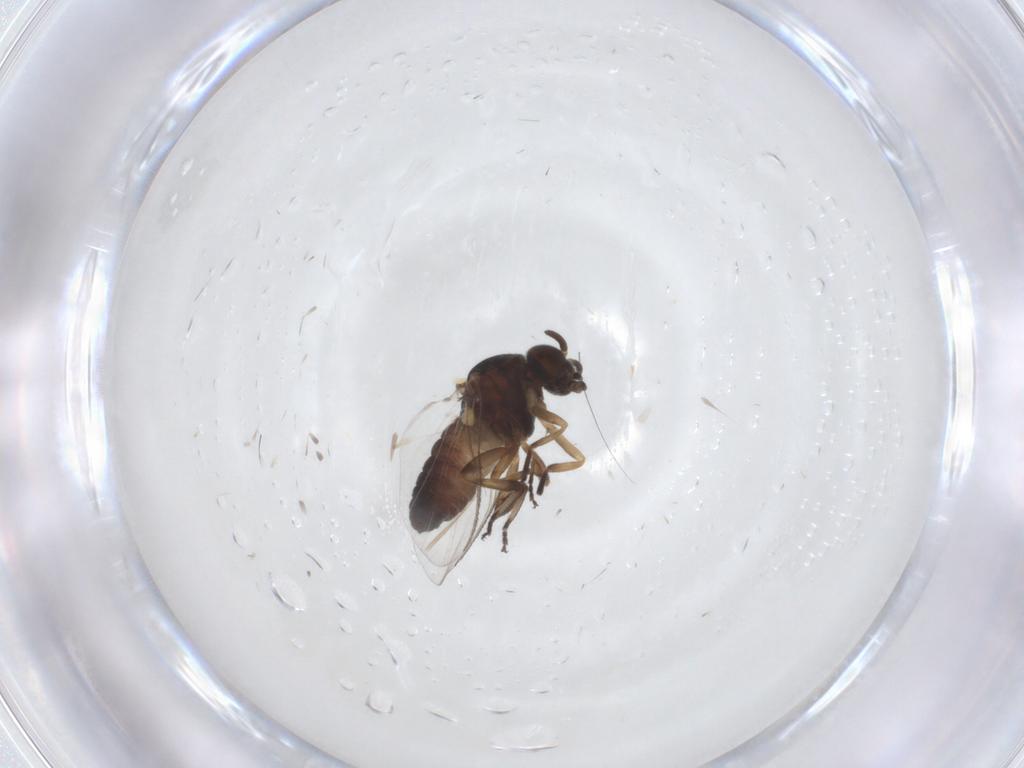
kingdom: Animalia
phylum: Arthropoda
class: Insecta
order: Diptera
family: Simuliidae
